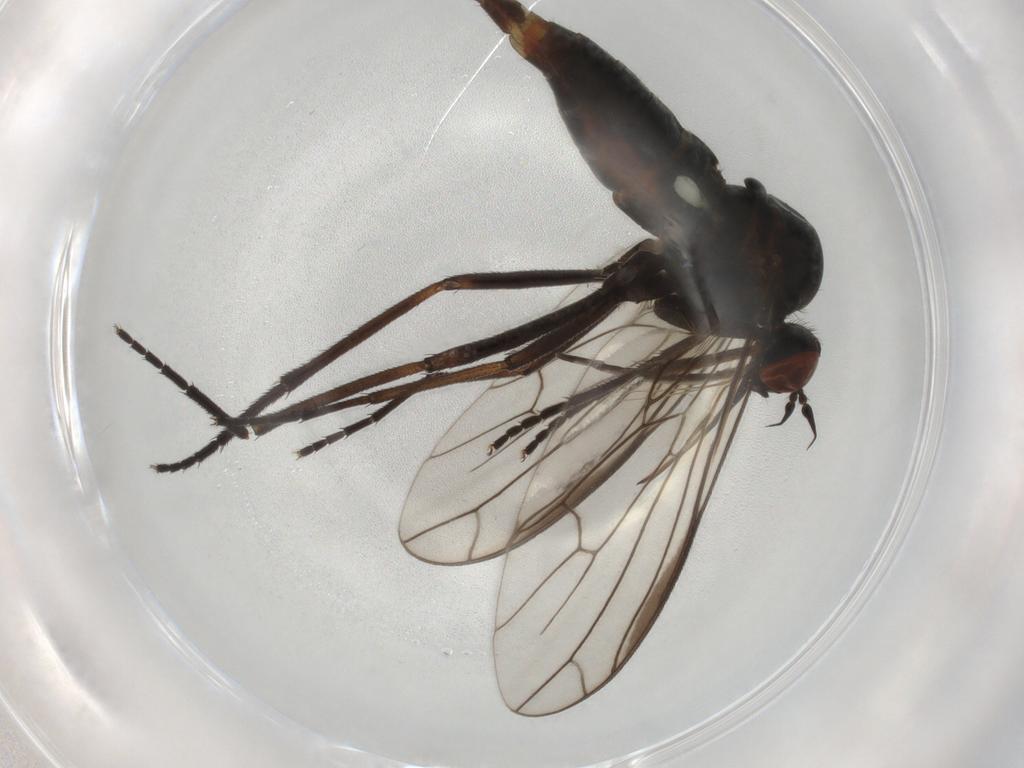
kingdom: Animalia
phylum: Arthropoda
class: Insecta
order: Diptera
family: Empididae
